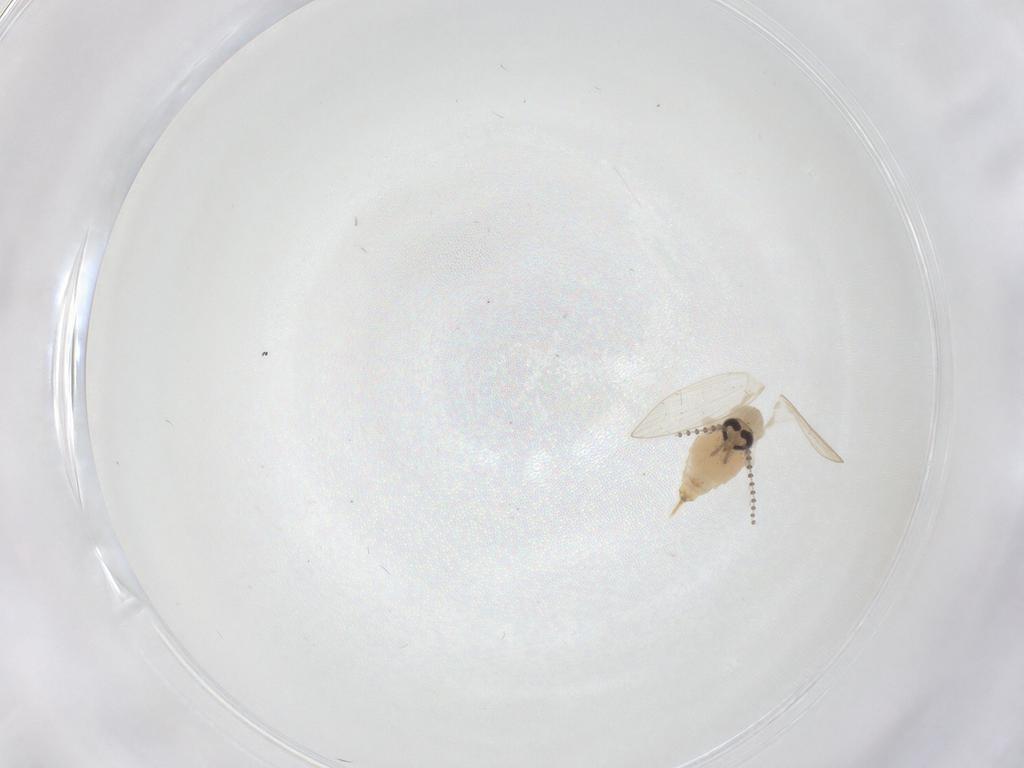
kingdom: Animalia
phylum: Arthropoda
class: Insecta
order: Diptera
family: Psychodidae
